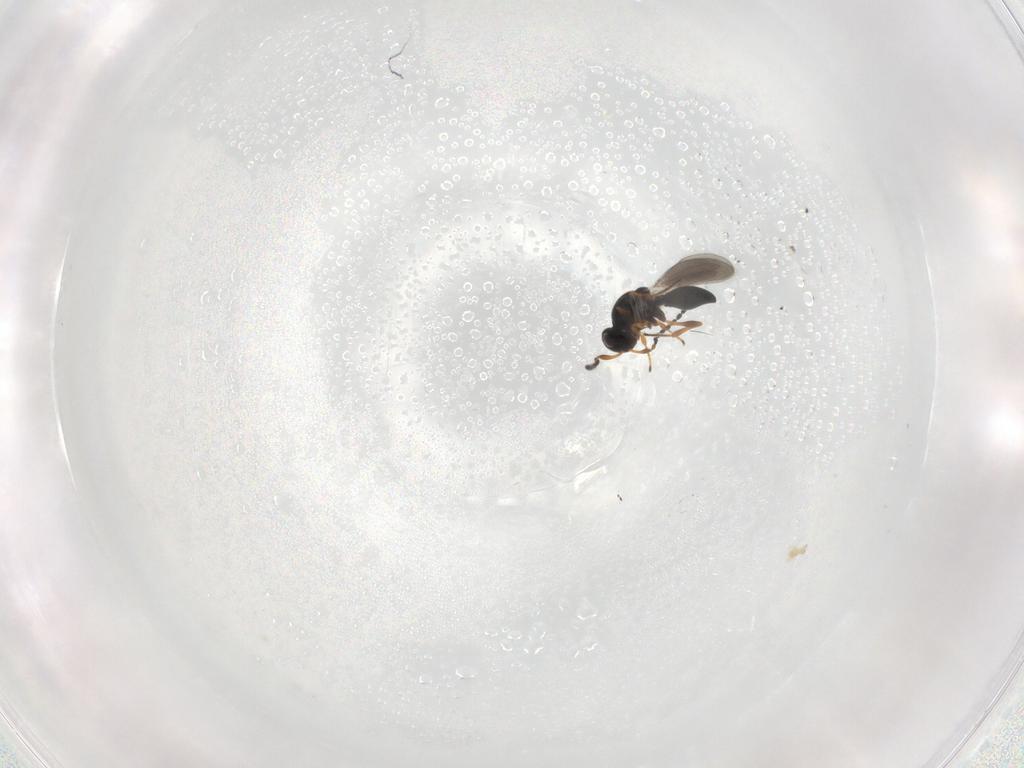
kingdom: Animalia
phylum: Arthropoda
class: Insecta
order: Hymenoptera
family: Platygastridae
